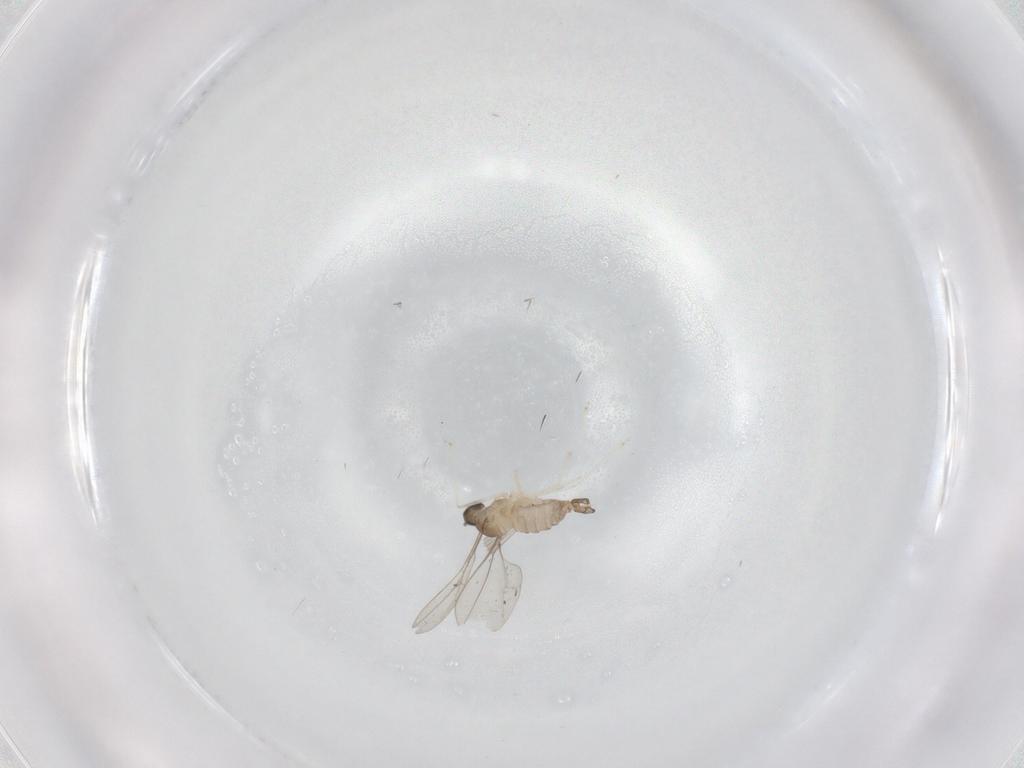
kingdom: Animalia
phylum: Arthropoda
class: Insecta
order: Diptera
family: Cecidomyiidae
